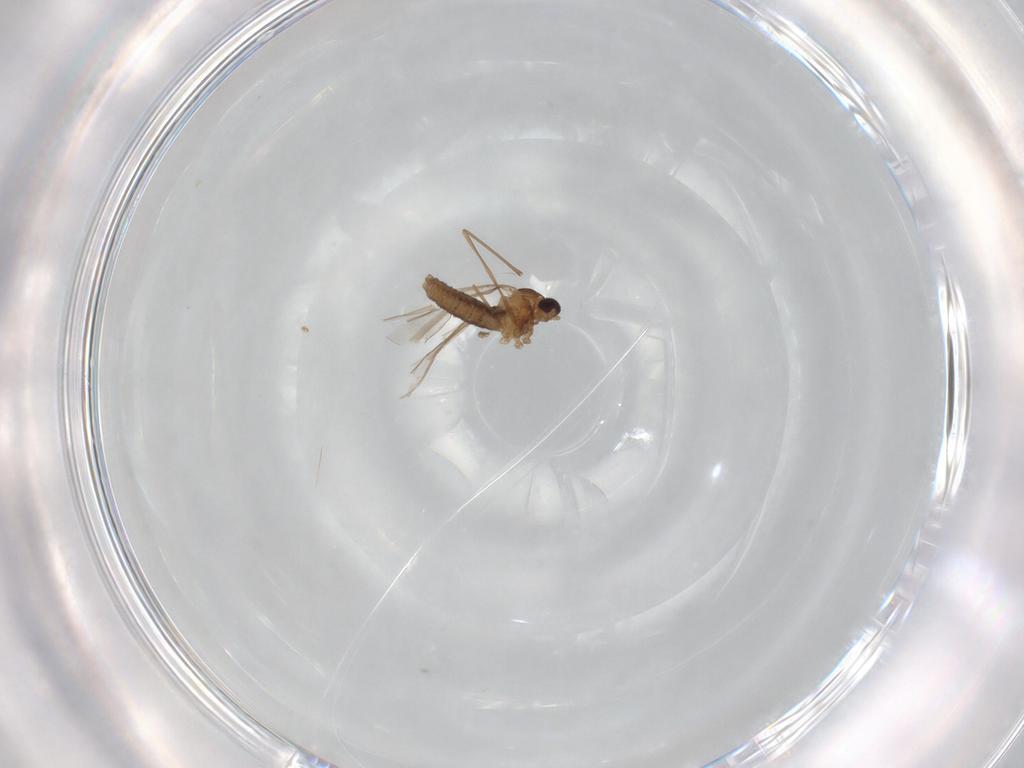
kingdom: Animalia
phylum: Arthropoda
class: Insecta
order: Diptera
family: Cecidomyiidae
